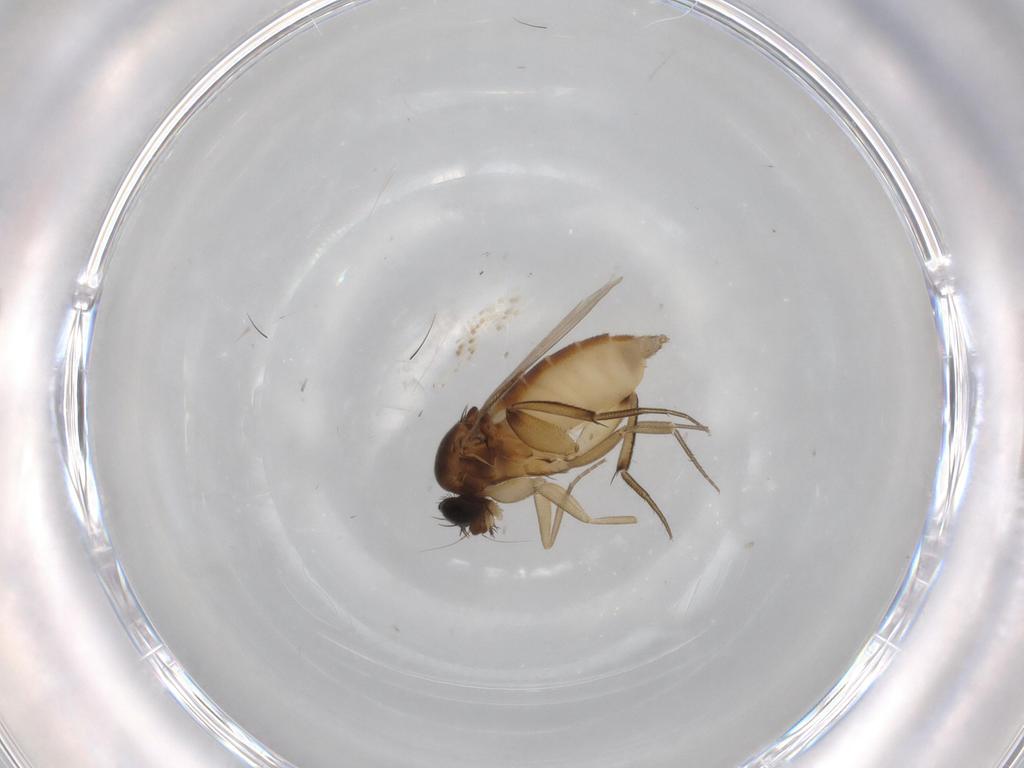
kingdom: Animalia
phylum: Arthropoda
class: Insecta
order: Diptera
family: Phoridae
